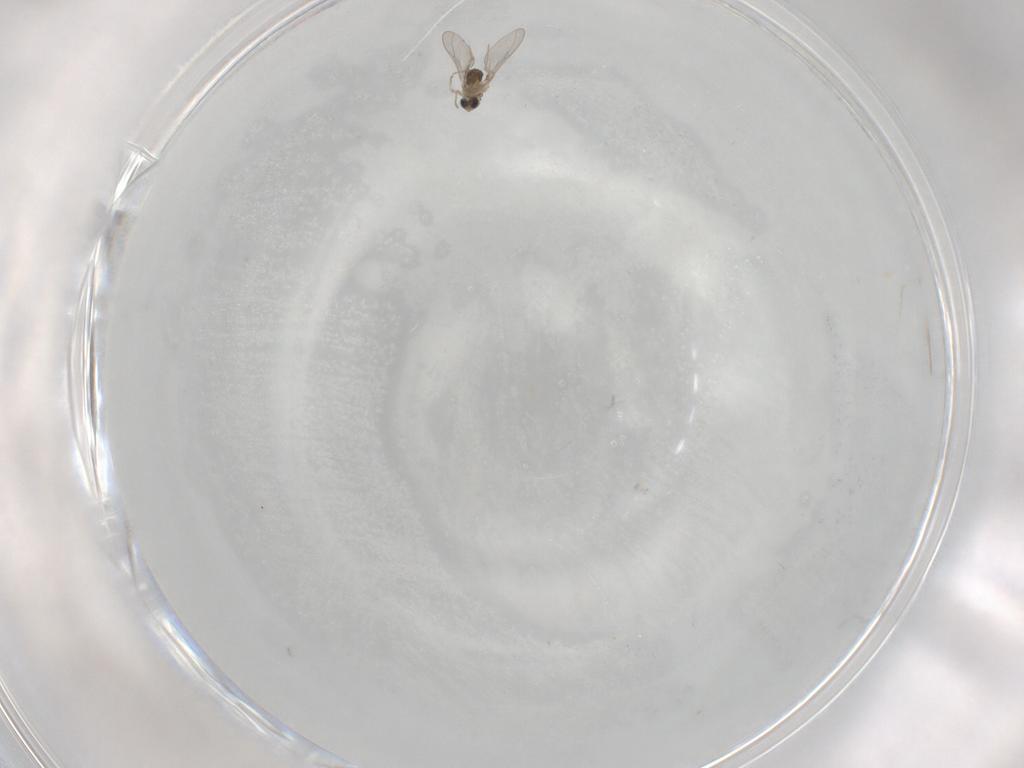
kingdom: Animalia
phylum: Arthropoda
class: Insecta
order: Diptera
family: Cecidomyiidae
